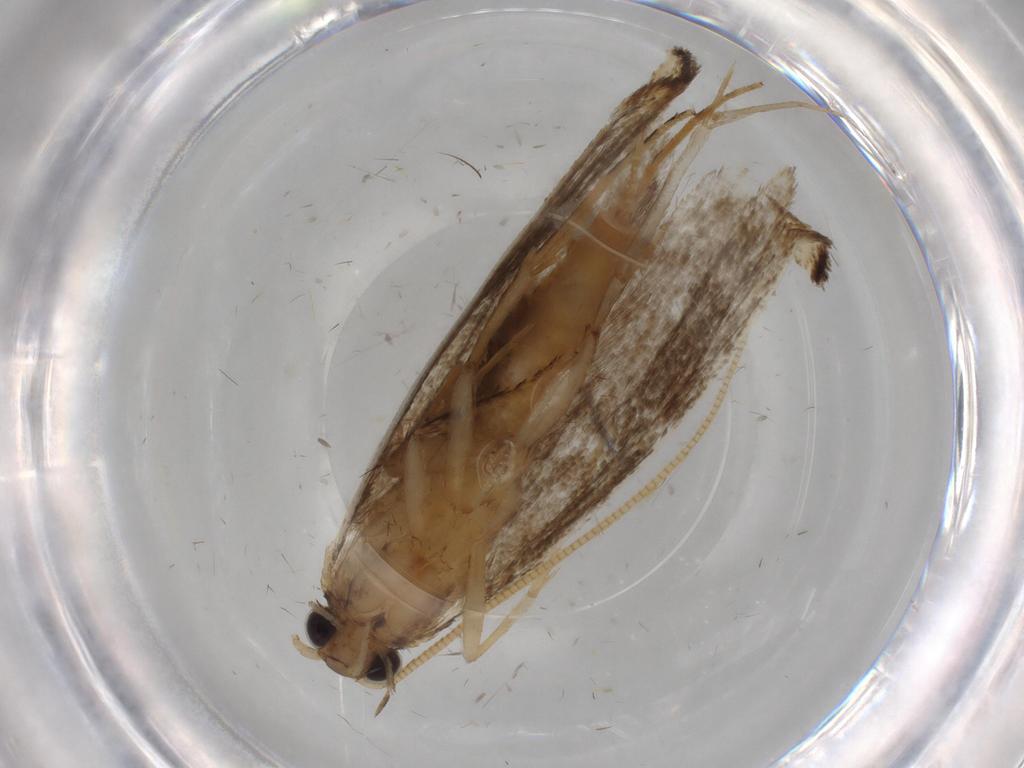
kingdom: Animalia
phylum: Arthropoda
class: Insecta
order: Lepidoptera
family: Tineidae
